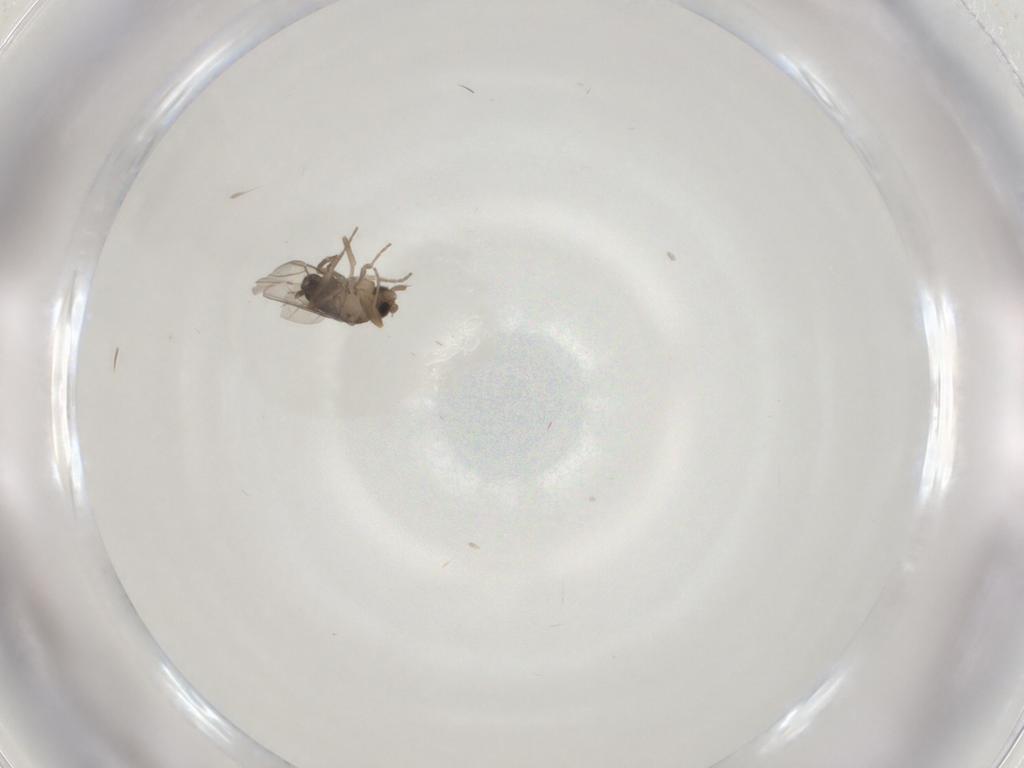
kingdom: Animalia
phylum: Arthropoda
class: Insecta
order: Diptera
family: Phoridae
